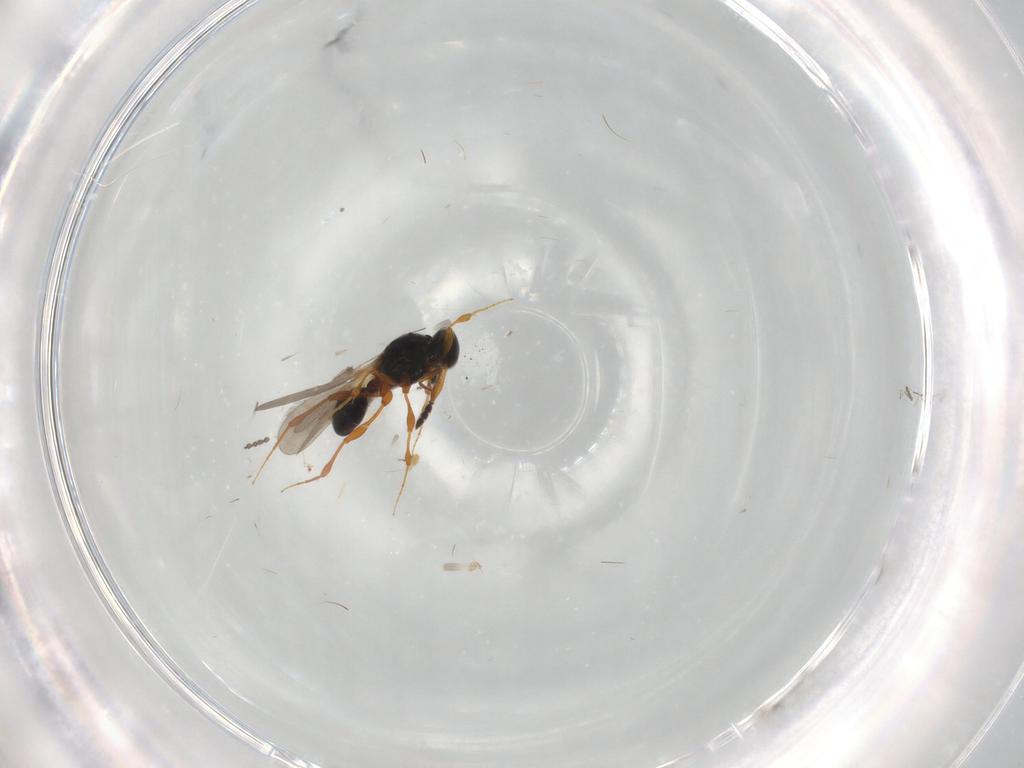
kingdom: Animalia
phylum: Arthropoda
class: Insecta
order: Hymenoptera
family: Platygastridae
